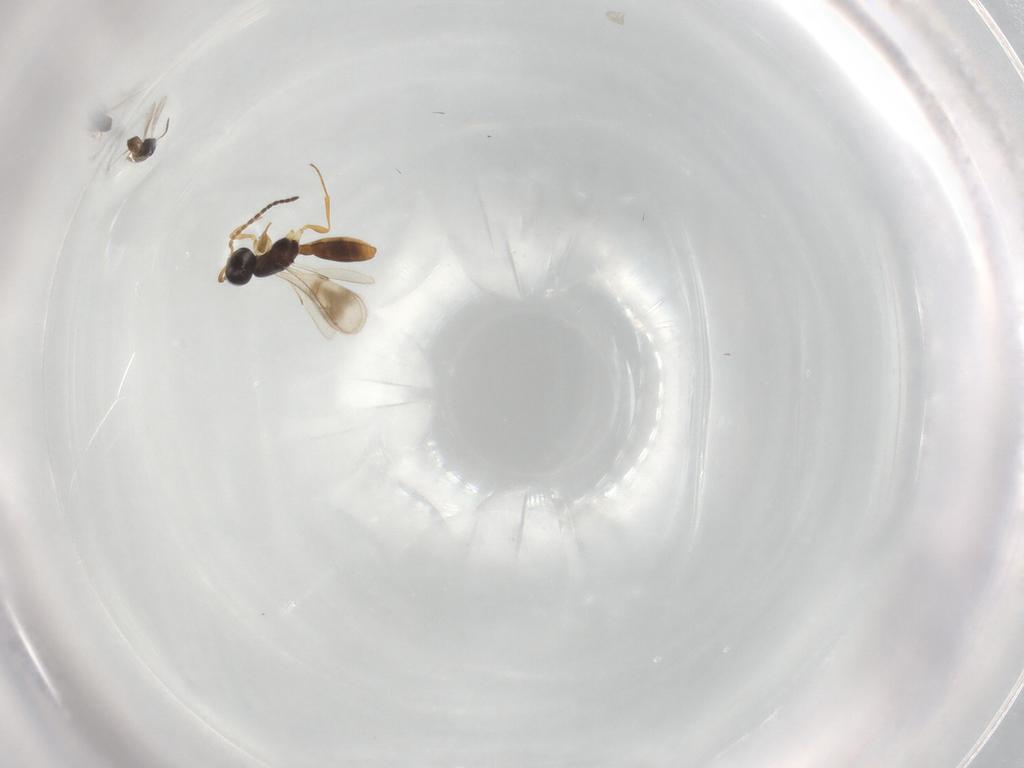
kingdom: Animalia
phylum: Arthropoda
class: Insecta
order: Hymenoptera
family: Scelionidae
